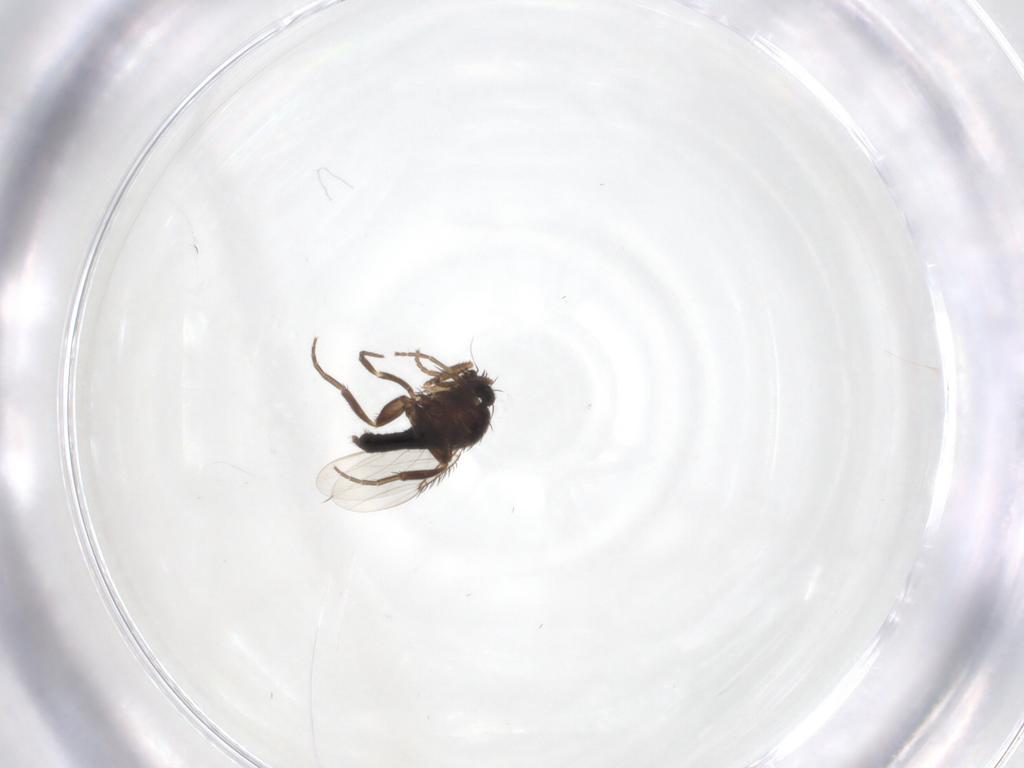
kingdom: Animalia
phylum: Arthropoda
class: Insecta
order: Diptera
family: Phoridae
